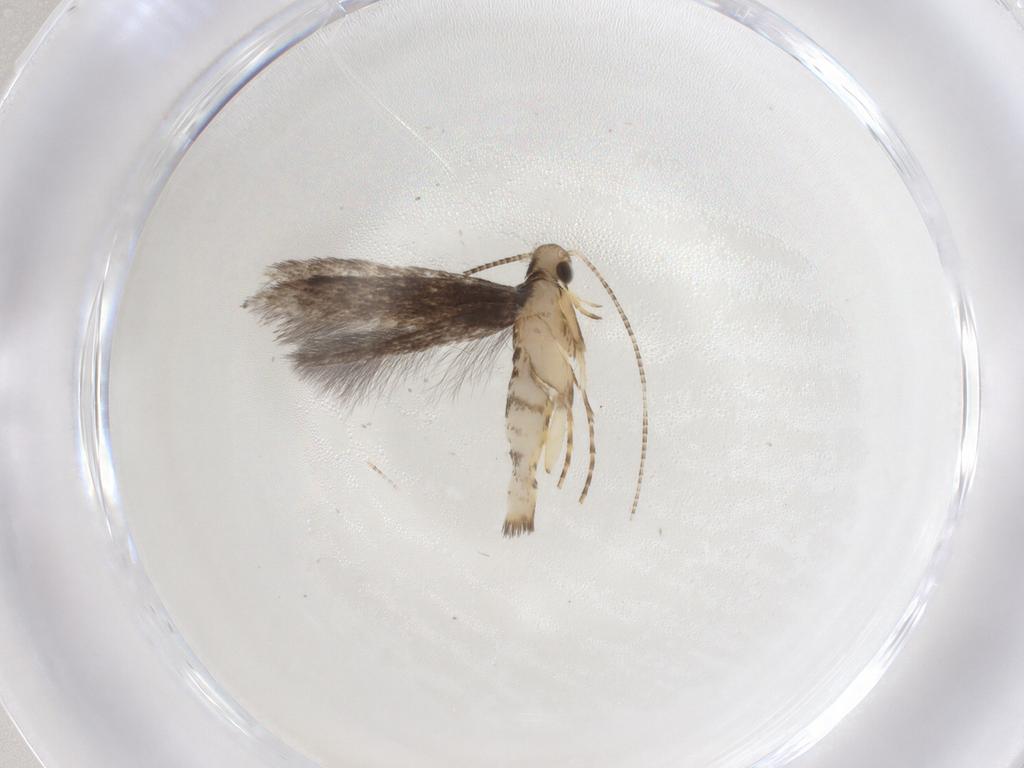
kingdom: Animalia
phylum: Arthropoda
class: Insecta
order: Lepidoptera
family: Gracillariidae
